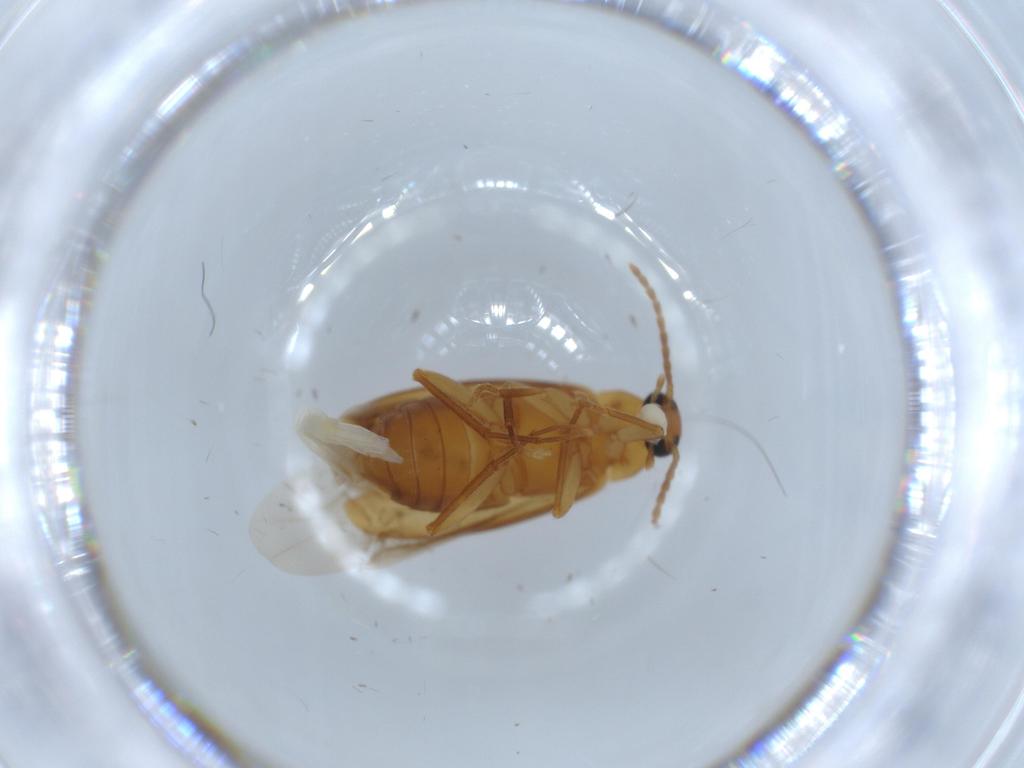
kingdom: Animalia
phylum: Arthropoda
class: Insecta
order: Coleoptera
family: Scraptiidae
